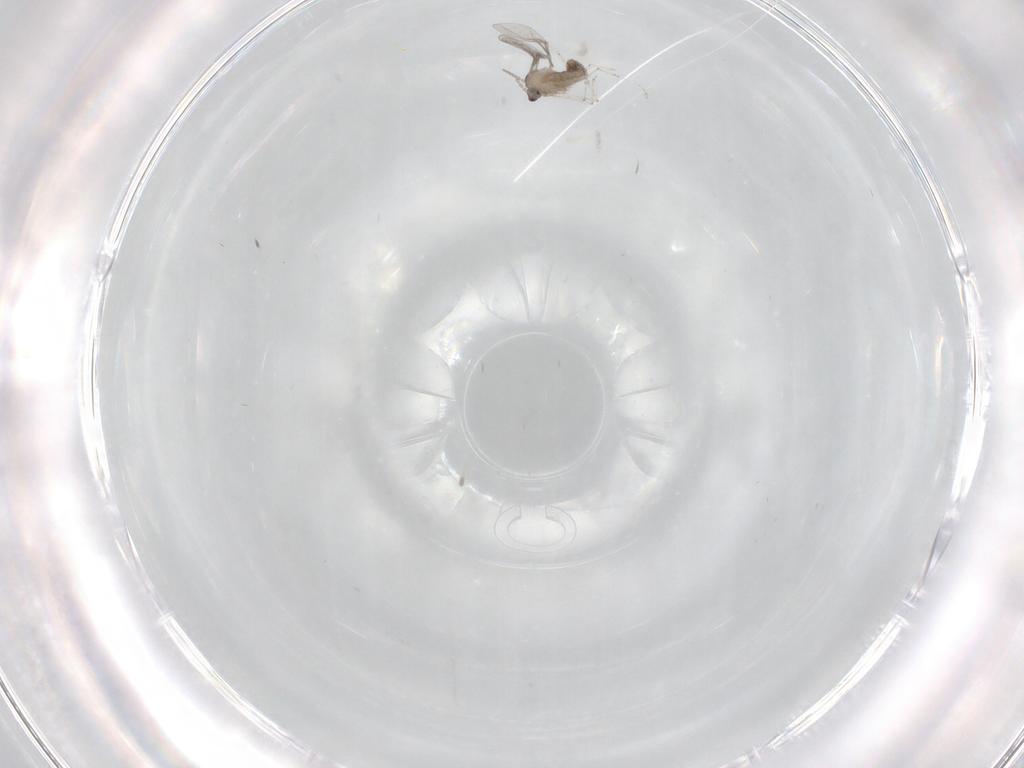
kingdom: Animalia
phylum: Arthropoda
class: Insecta
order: Diptera
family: Cecidomyiidae
